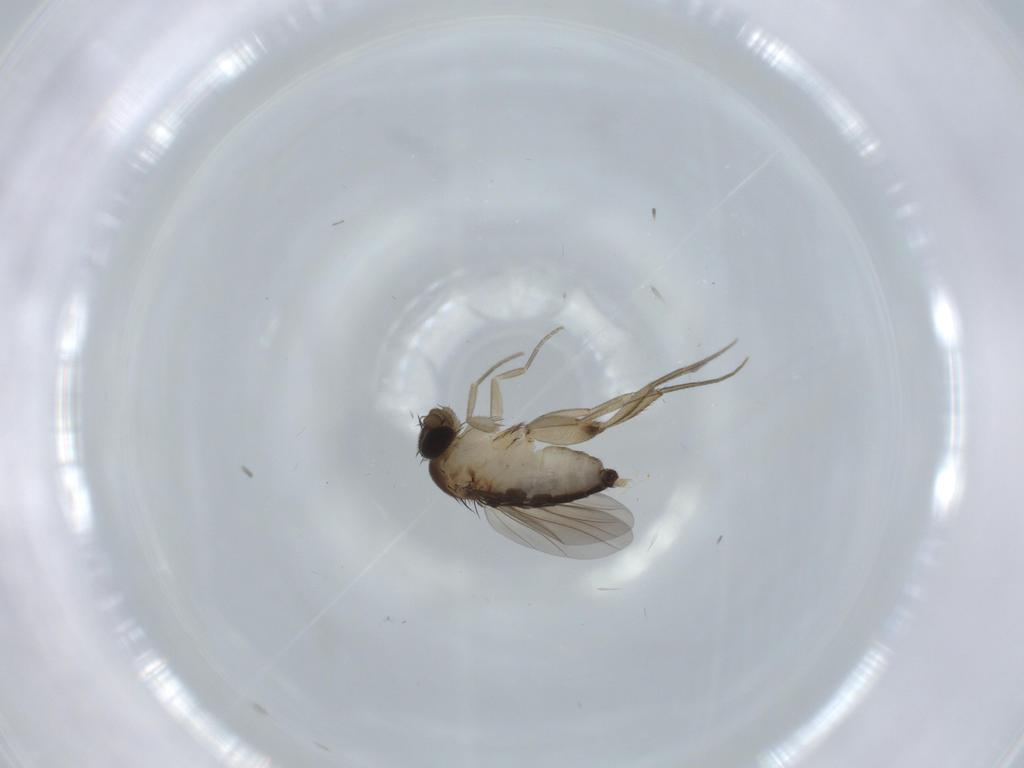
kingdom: Animalia
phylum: Arthropoda
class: Insecta
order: Diptera
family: Phoridae
